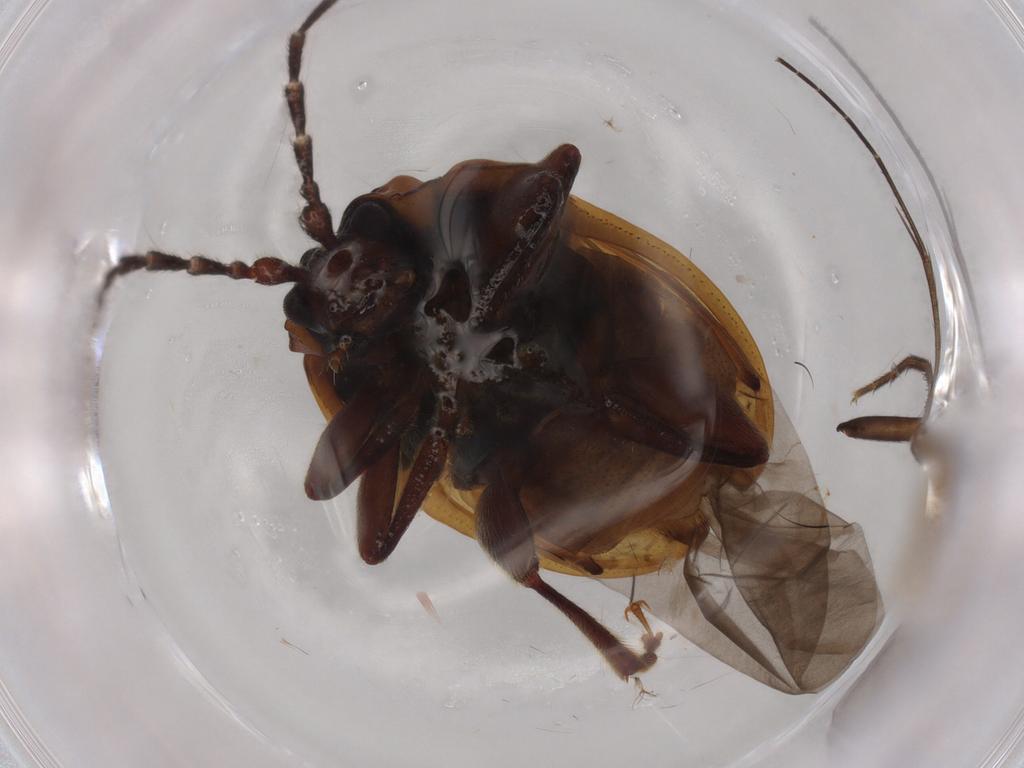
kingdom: Animalia
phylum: Arthropoda
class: Insecta
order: Coleoptera
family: Chrysomelidae
